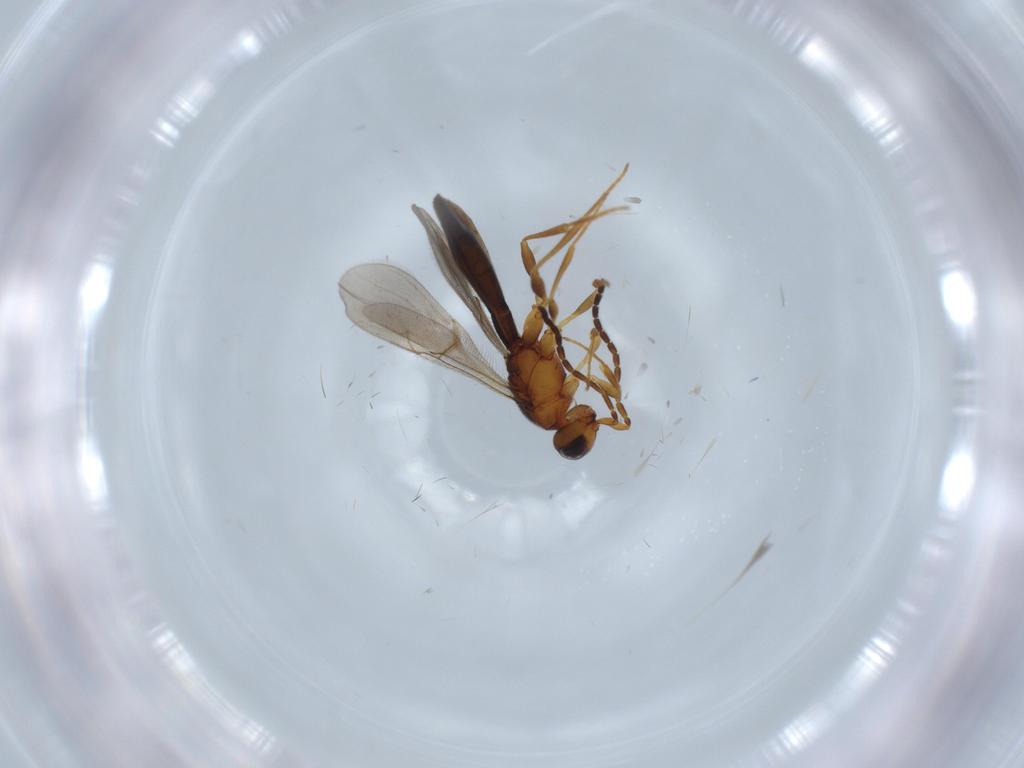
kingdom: Animalia
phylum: Arthropoda
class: Insecta
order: Hymenoptera
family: Scelionidae
